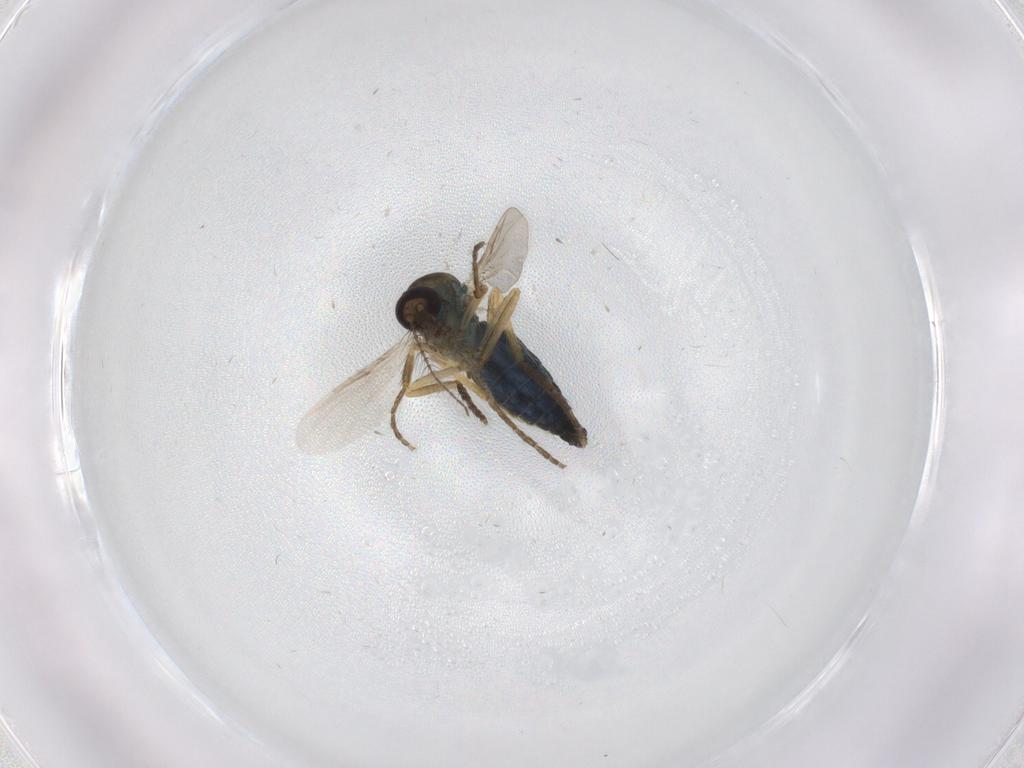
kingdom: Animalia
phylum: Arthropoda
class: Insecta
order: Diptera
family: Ceratopogonidae
